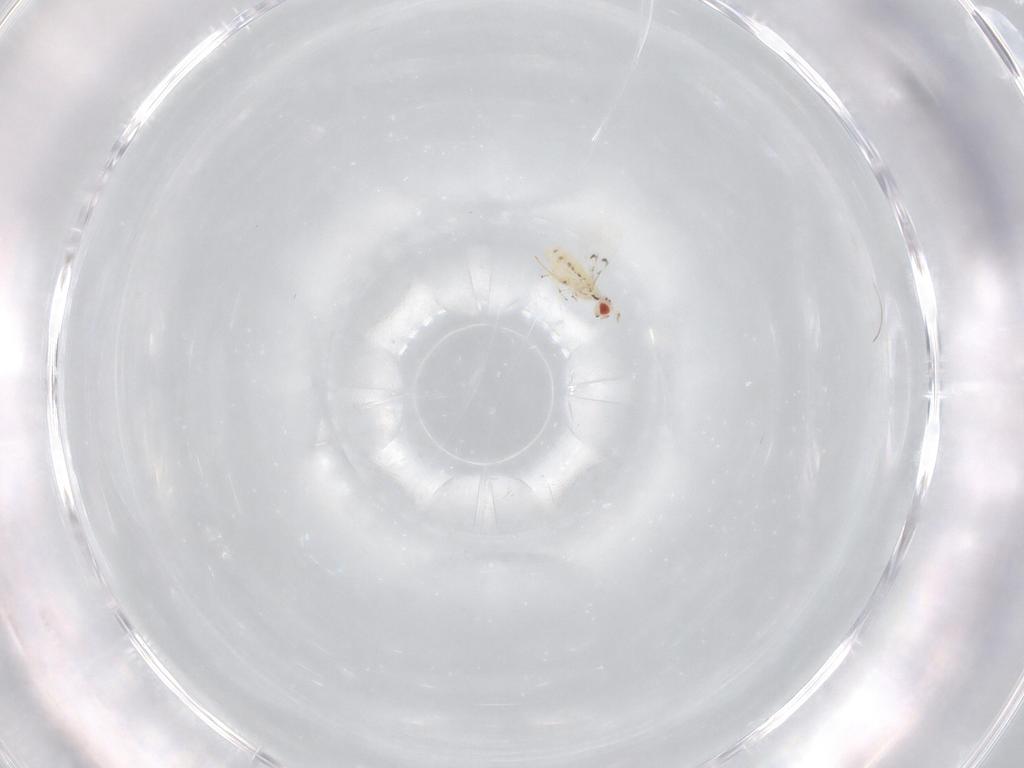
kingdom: Animalia
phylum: Arthropoda
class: Insecta
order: Hymenoptera
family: Trichogrammatidae
